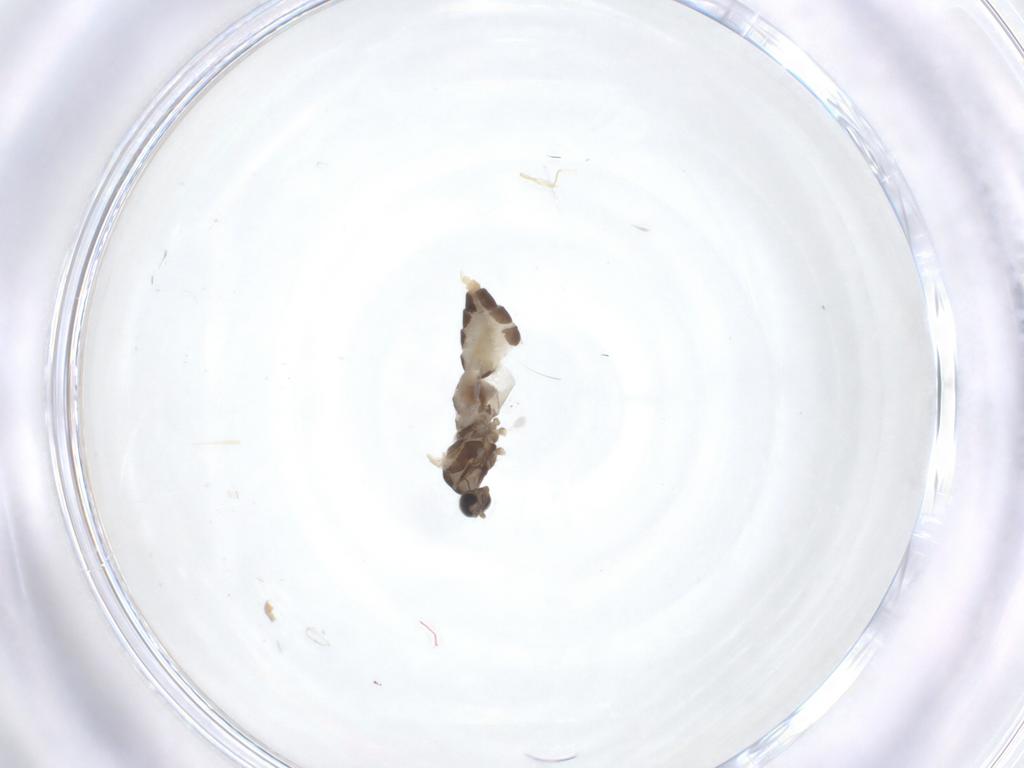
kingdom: Animalia
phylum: Arthropoda
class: Insecta
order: Diptera
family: Cecidomyiidae
